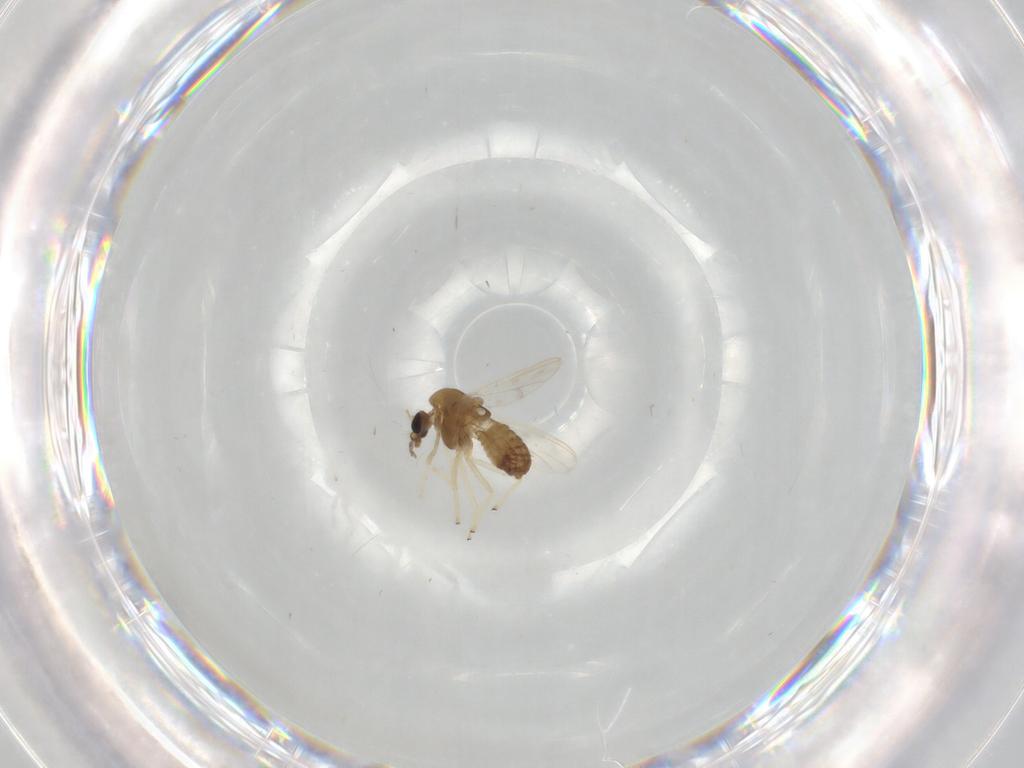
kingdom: Animalia
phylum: Arthropoda
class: Insecta
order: Diptera
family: Chironomidae
